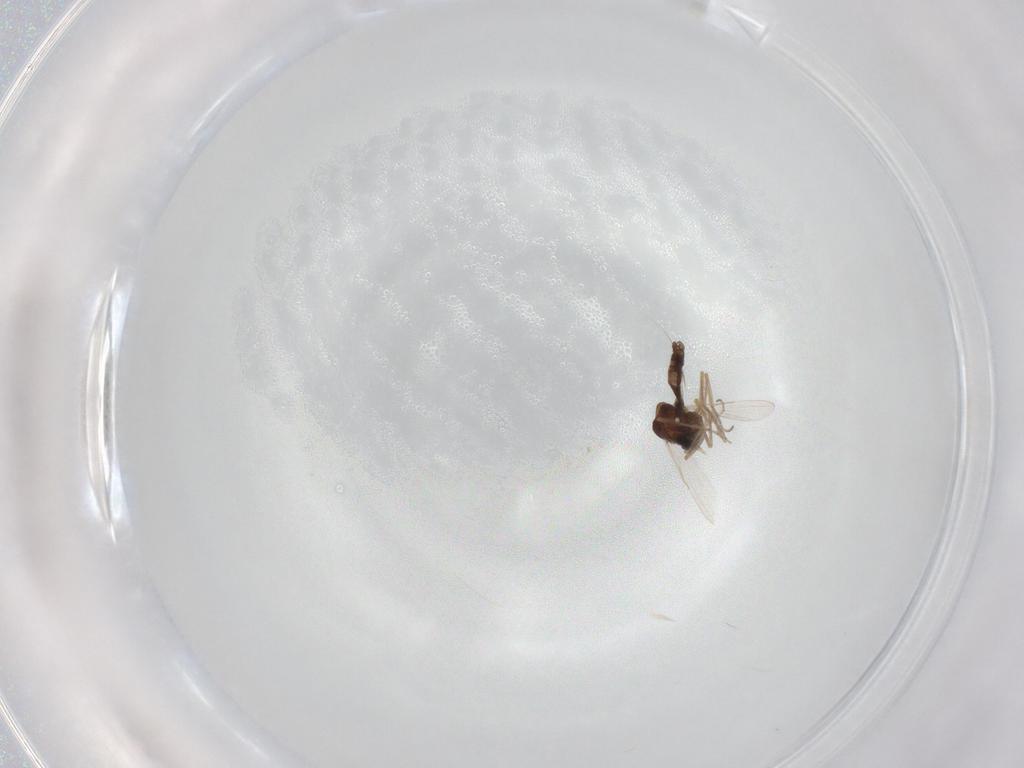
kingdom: Animalia
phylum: Arthropoda
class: Insecta
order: Diptera
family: Ceratopogonidae
